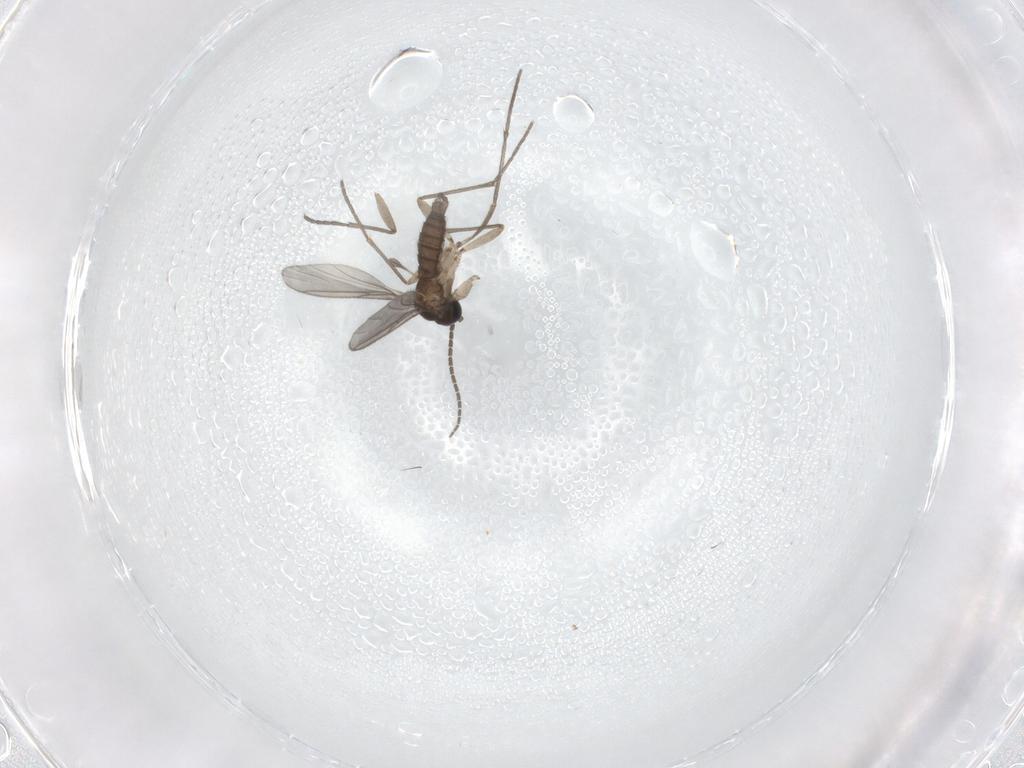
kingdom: Animalia
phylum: Arthropoda
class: Insecta
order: Diptera
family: Sciaridae
